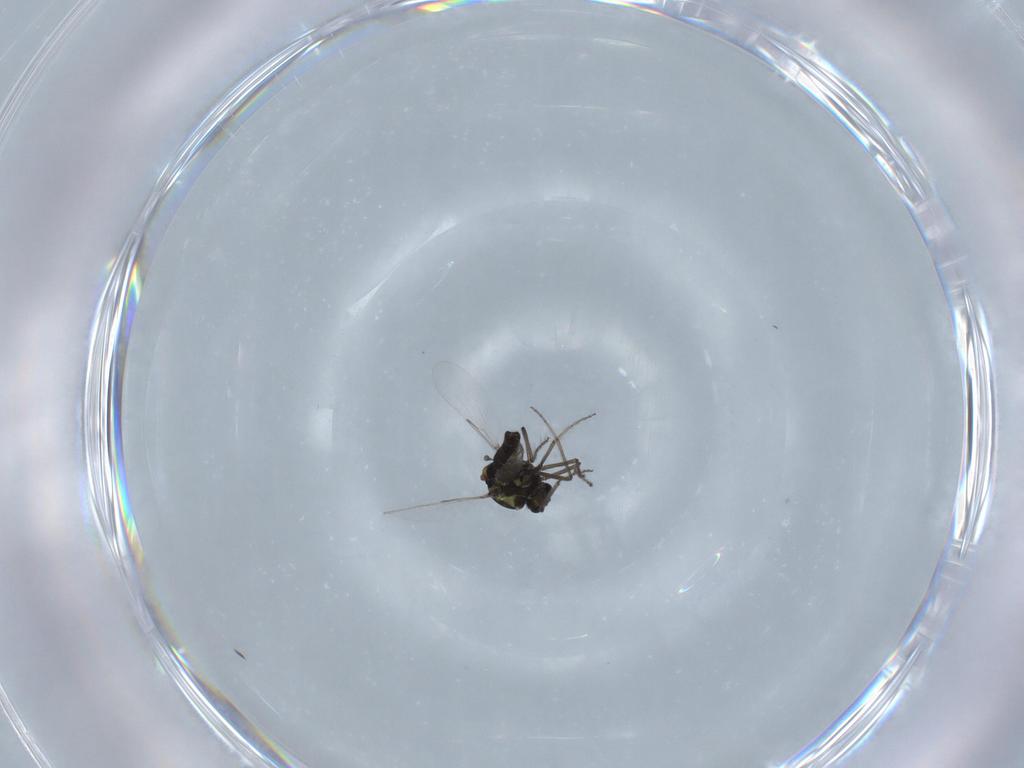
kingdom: Animalia
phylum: Arthropoda
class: Insecta
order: Diptera
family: Ceratopogonidae
